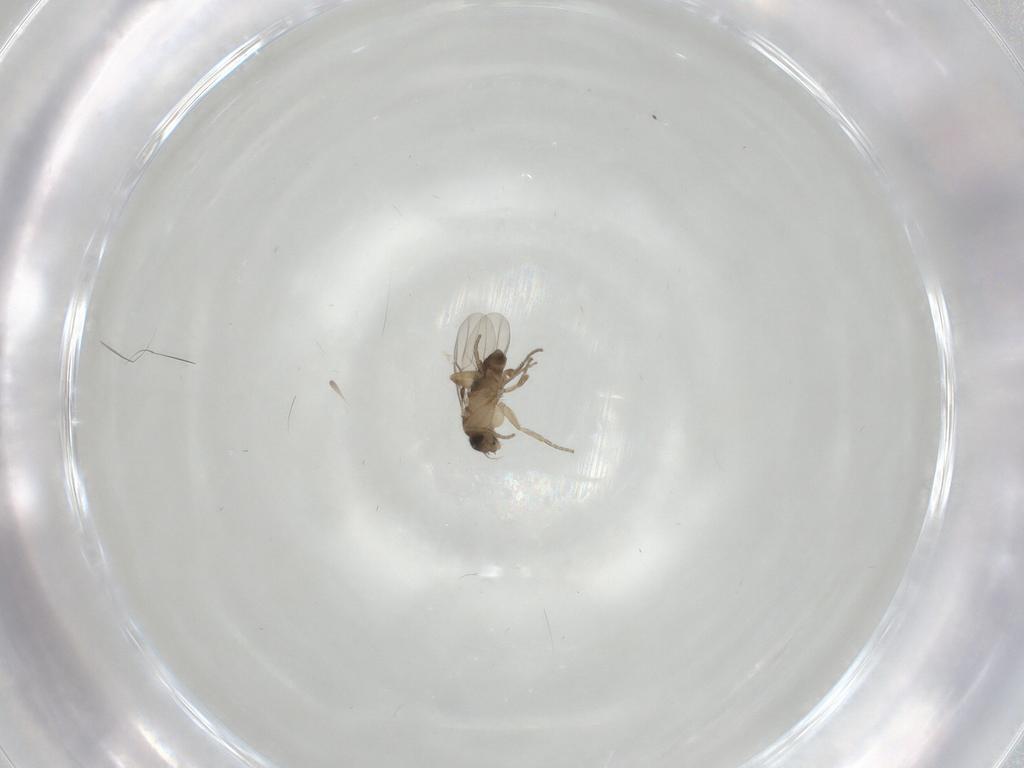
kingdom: Animalia
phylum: Arthropoda
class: Insecta
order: Diptera
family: Phoridae
